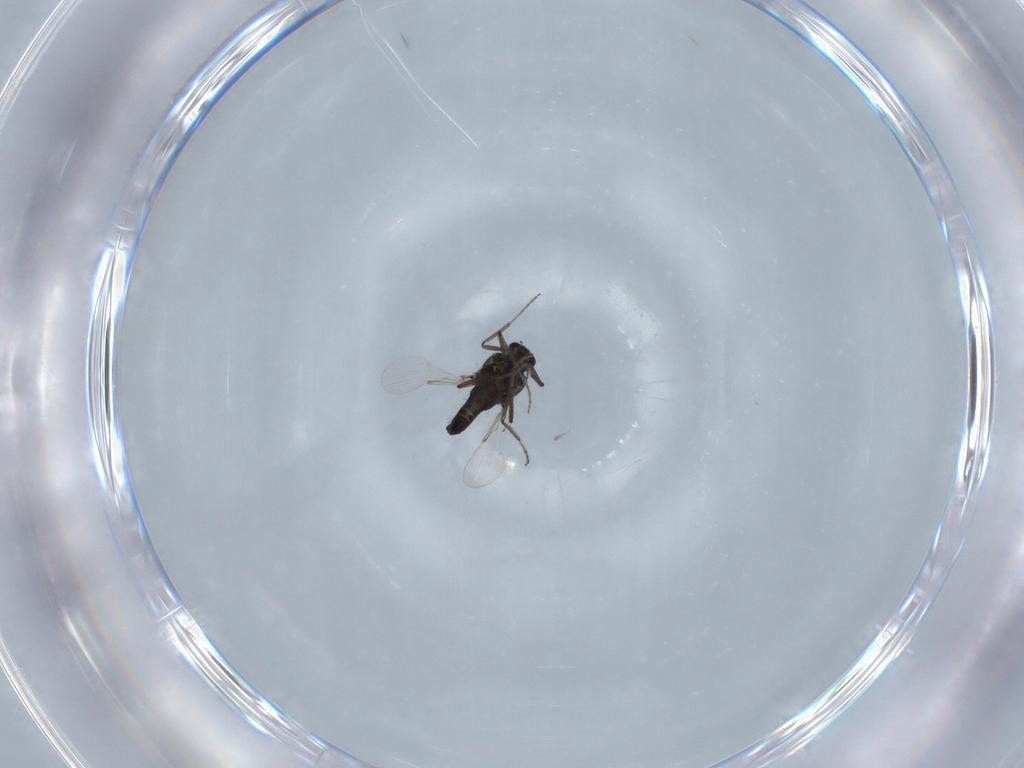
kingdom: Animalia
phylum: Arthropoda
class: Insecta
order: Diptera
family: Ceratopogonidae
